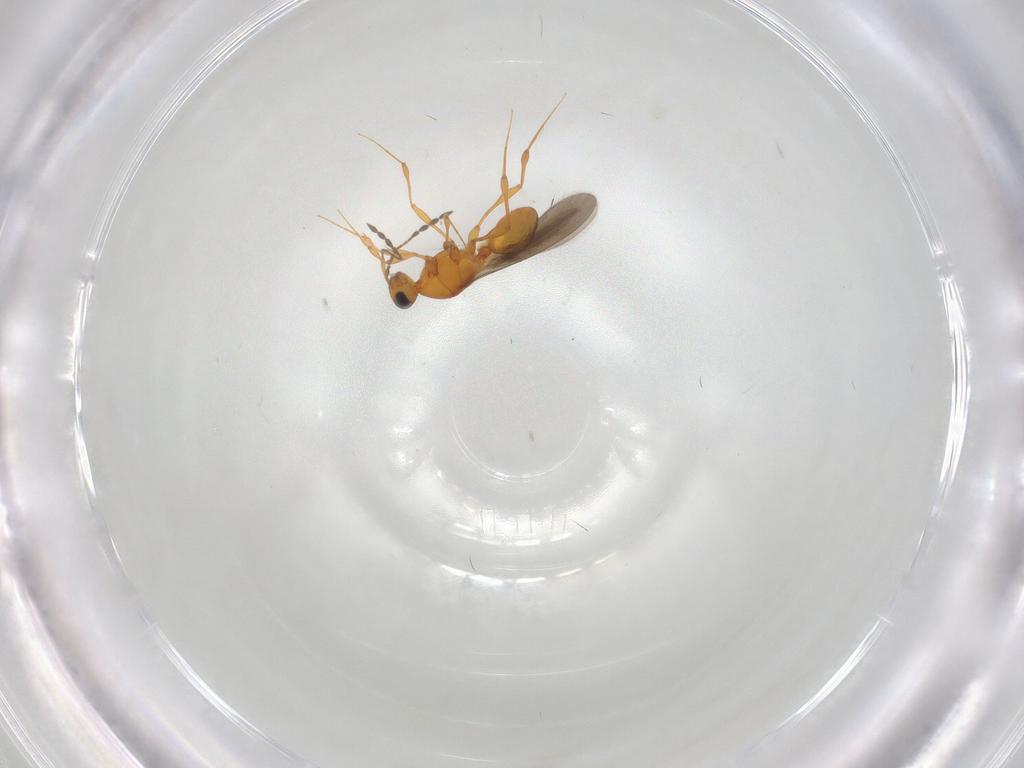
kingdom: Animalia
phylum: Arthropoda
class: Insecta
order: Hymenoptera
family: Platygastridae
